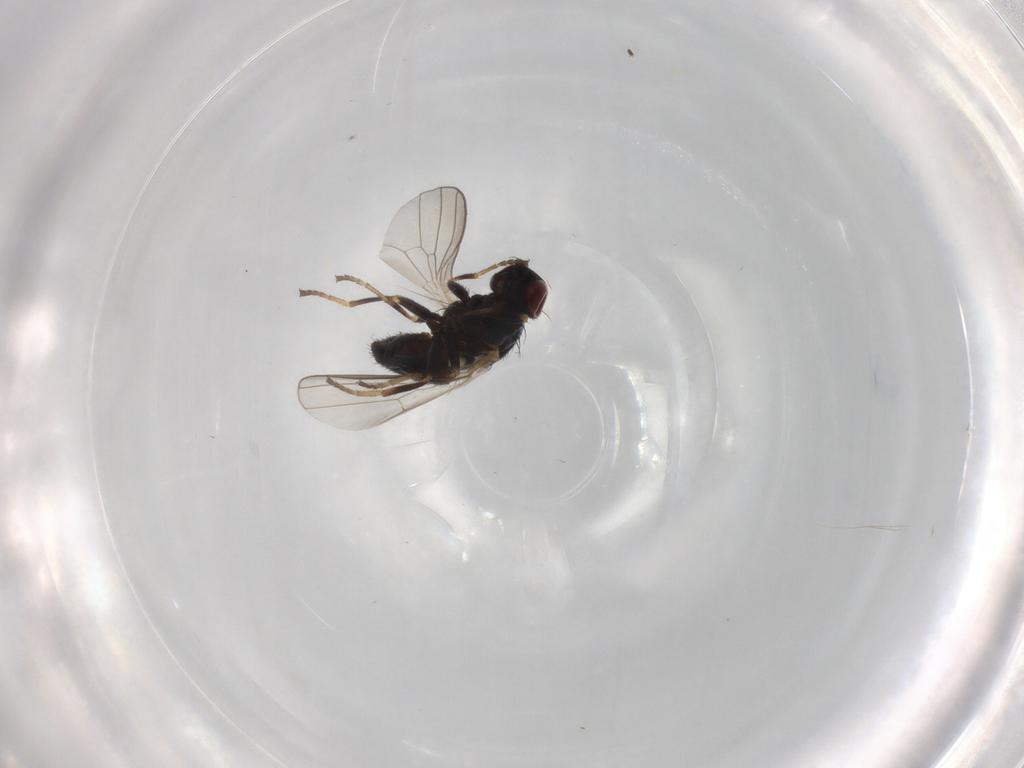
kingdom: Animalia
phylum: Arthropoda
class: Insecta
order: Diptera
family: Chamaemyiidae
